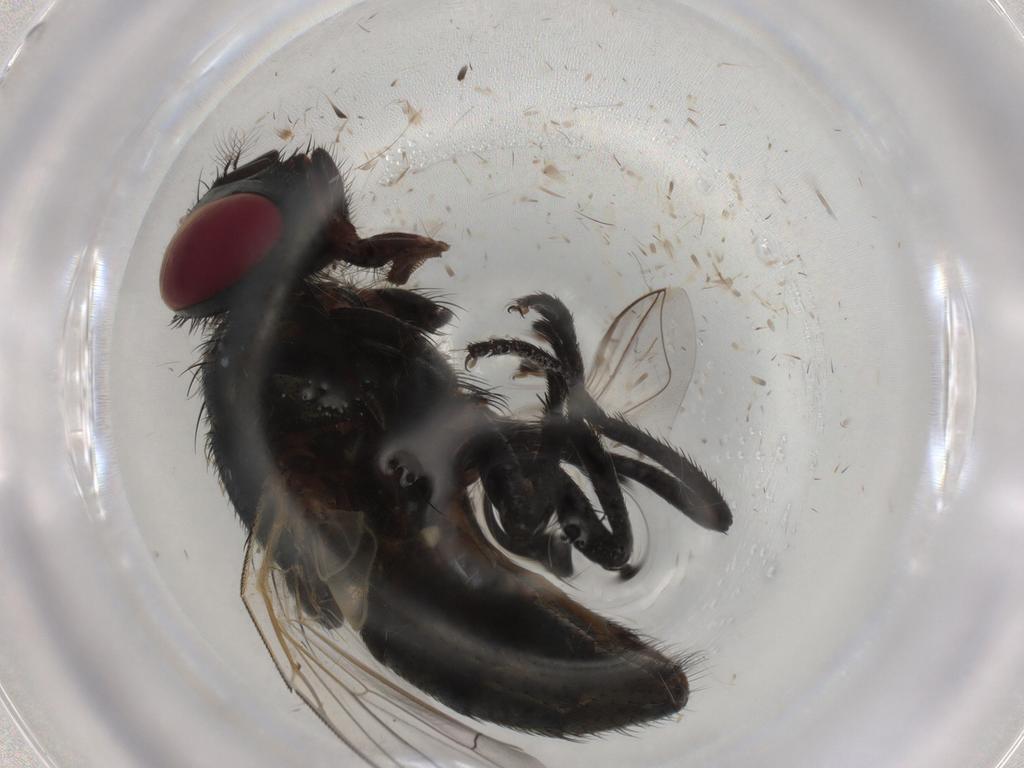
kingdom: Animalia
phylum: Arthropoda
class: Insecta
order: Diptera
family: Muscidae
